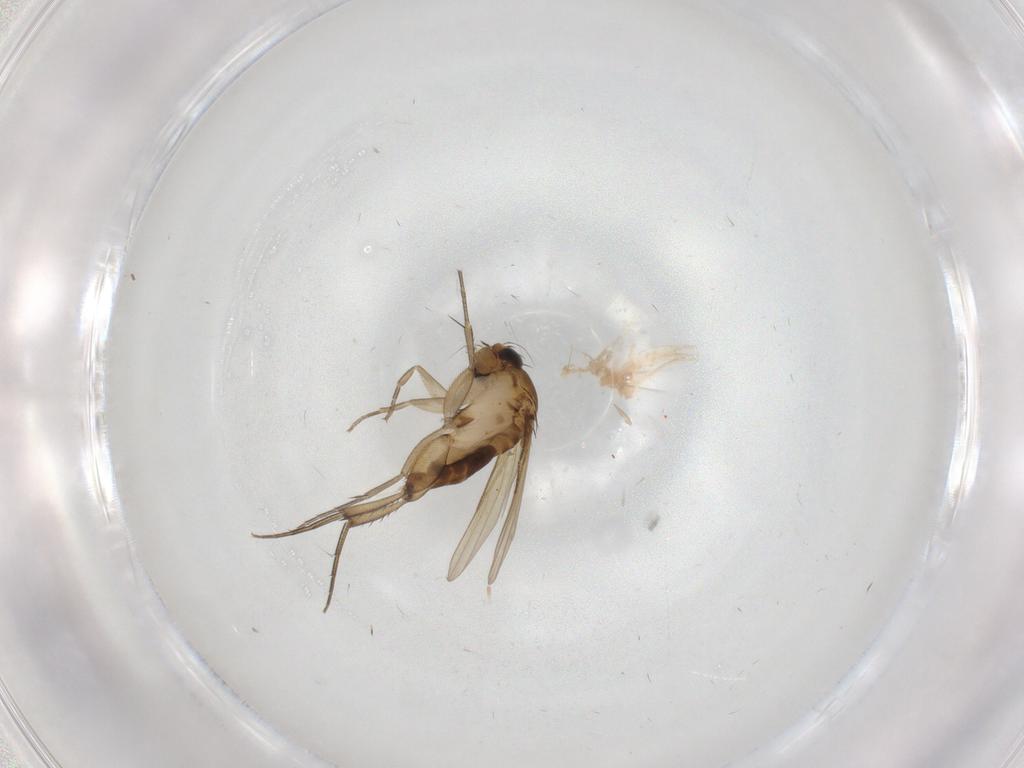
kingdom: Animalia
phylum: Arthropoda
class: Insecta
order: Diptera
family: Phoridae
